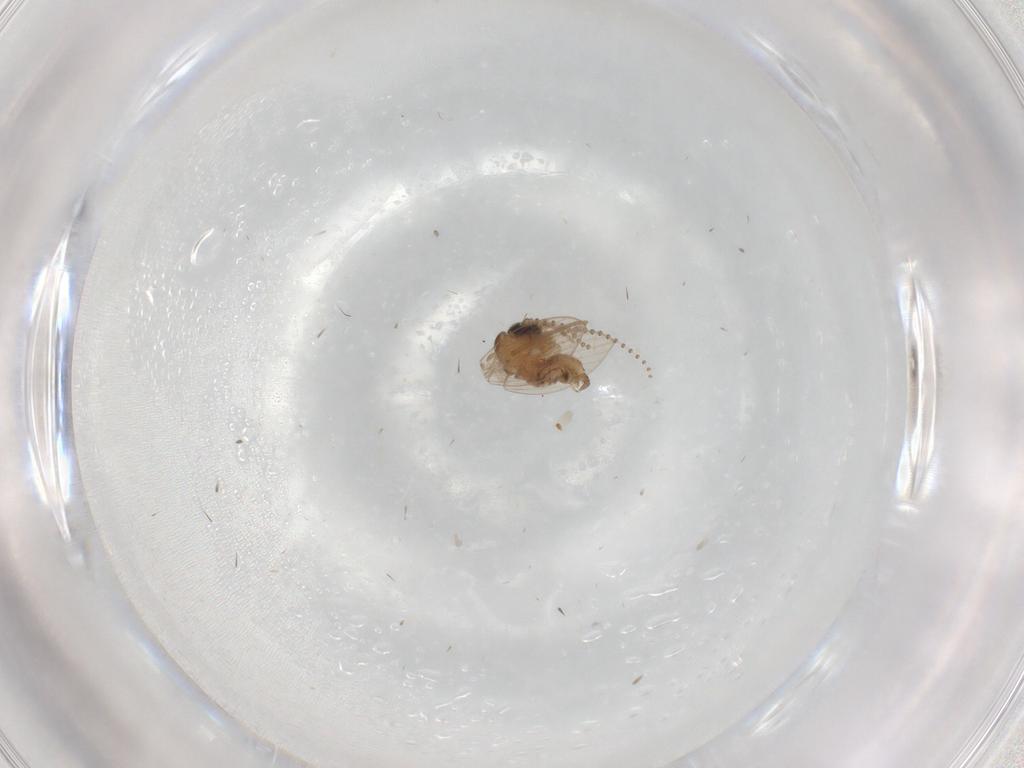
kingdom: Animalia
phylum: Arthropoda
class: Insecta
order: Diptera
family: Psychodidae
